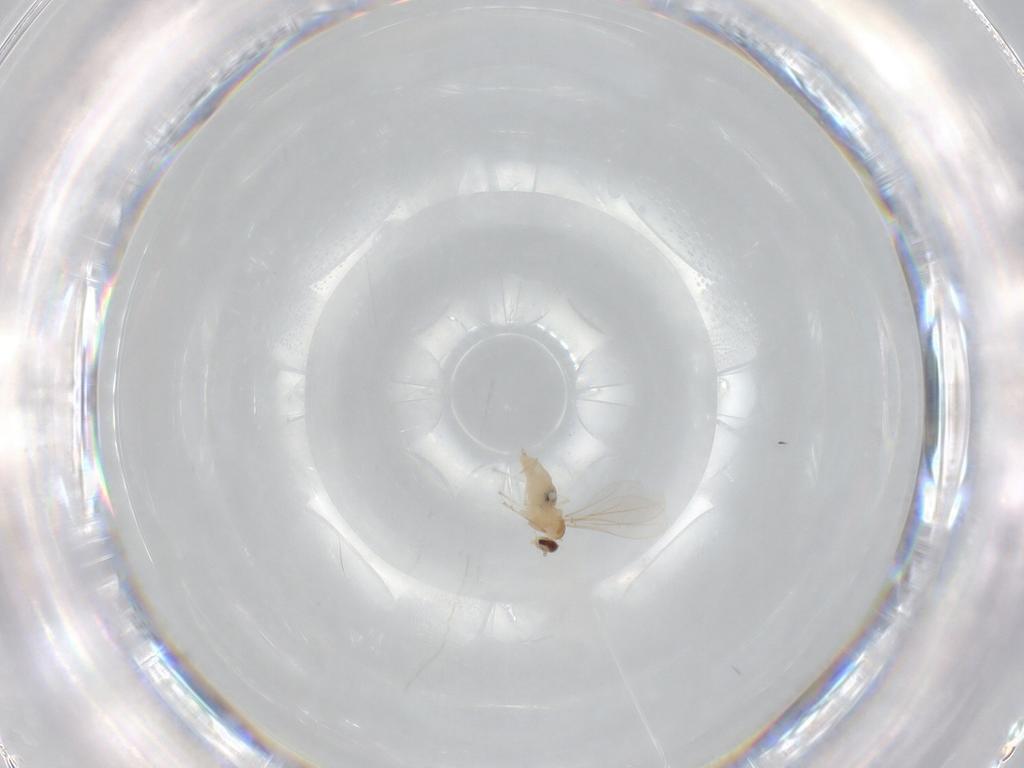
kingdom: Animalia
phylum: Arthropoda
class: Insecta
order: Diptera
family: Cecidomyiidae
